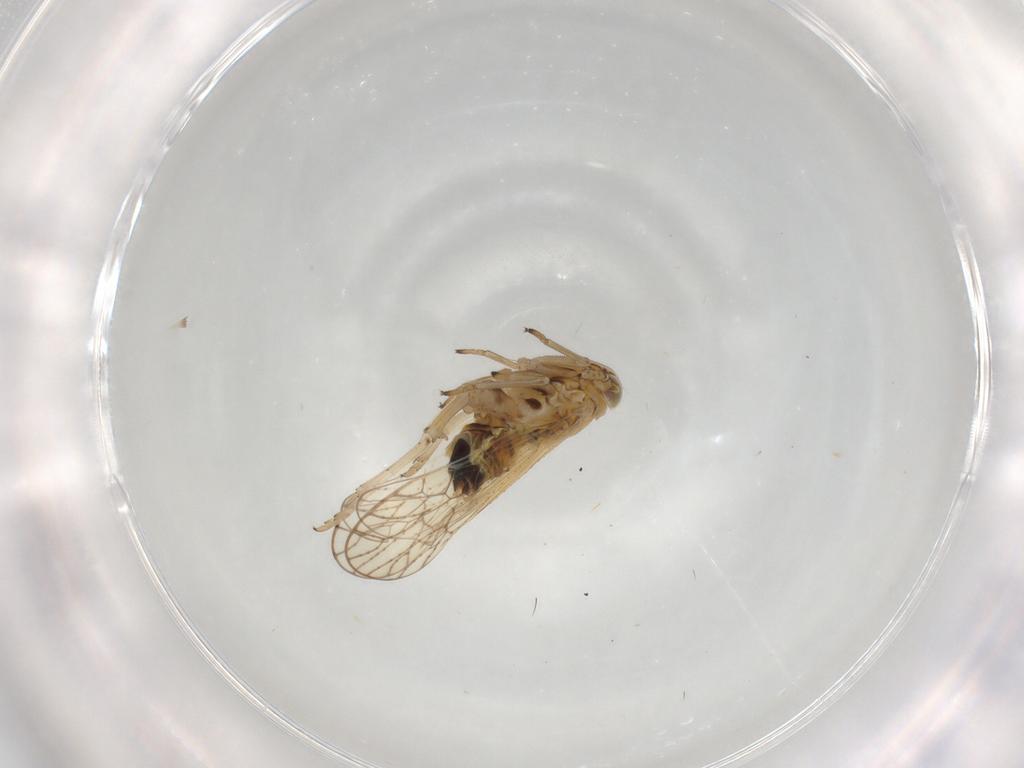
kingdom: Animalia
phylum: Arthropoda
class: Insecta
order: Hemiptera
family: Delphacidae
